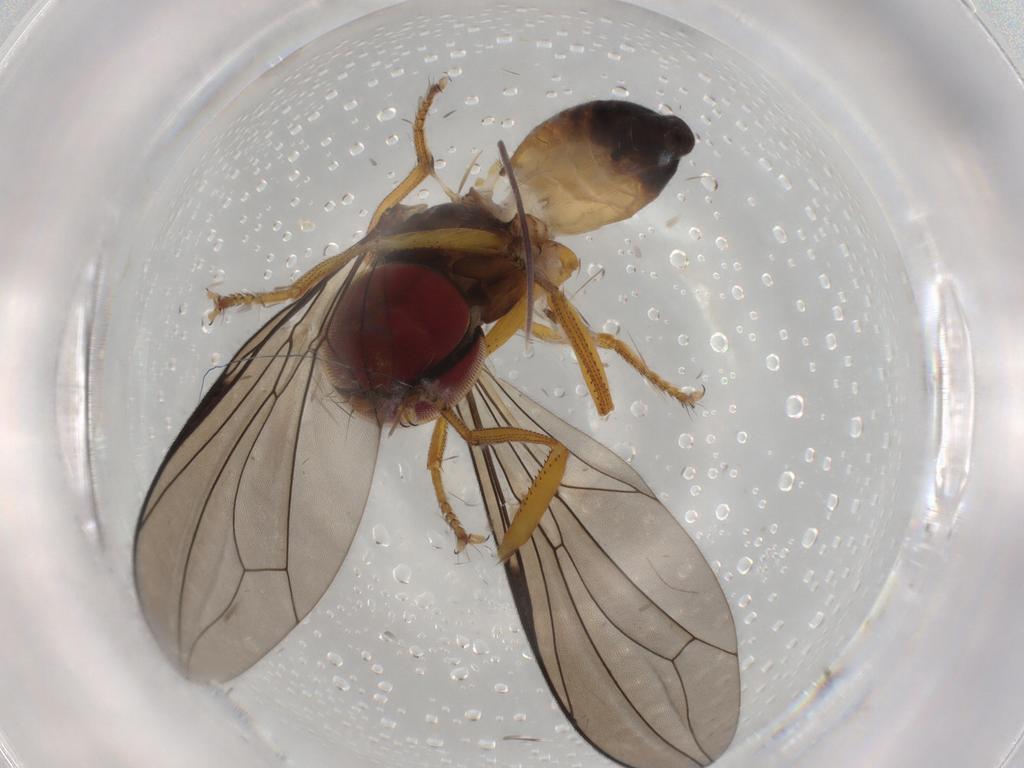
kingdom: Animalia
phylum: Arthropoda
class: Insecta
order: Diptera
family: Pipunculidae
